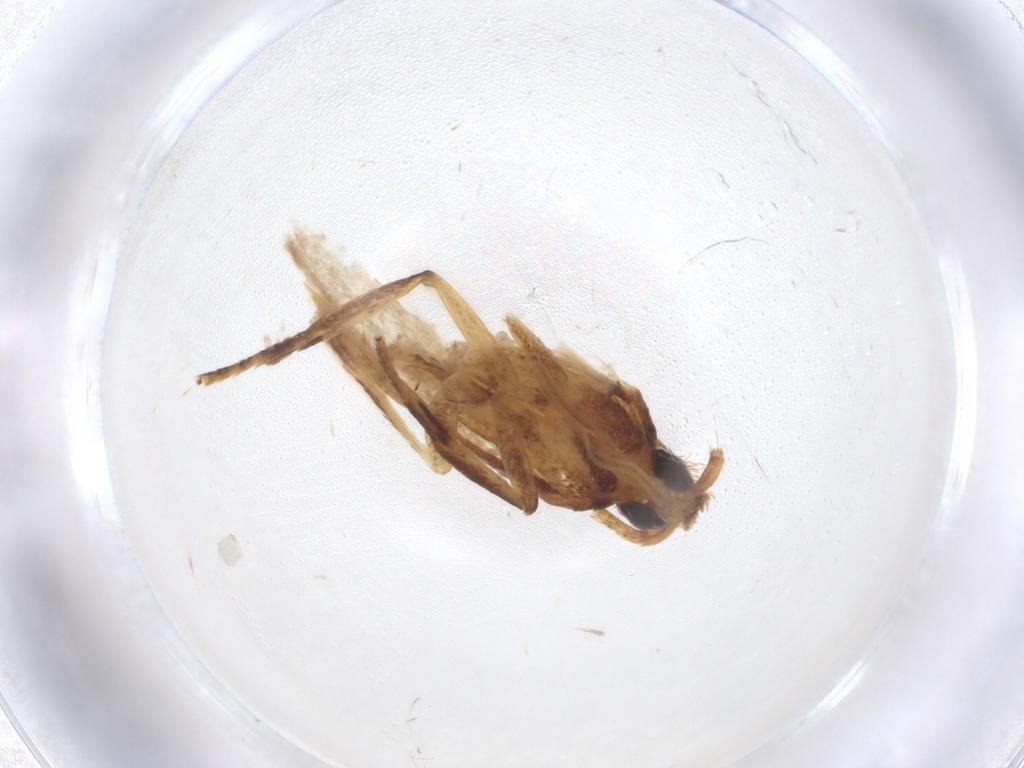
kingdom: Animalia
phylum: Arthropoda
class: Insecta
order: Lepidoptera
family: Lecithoceridae
